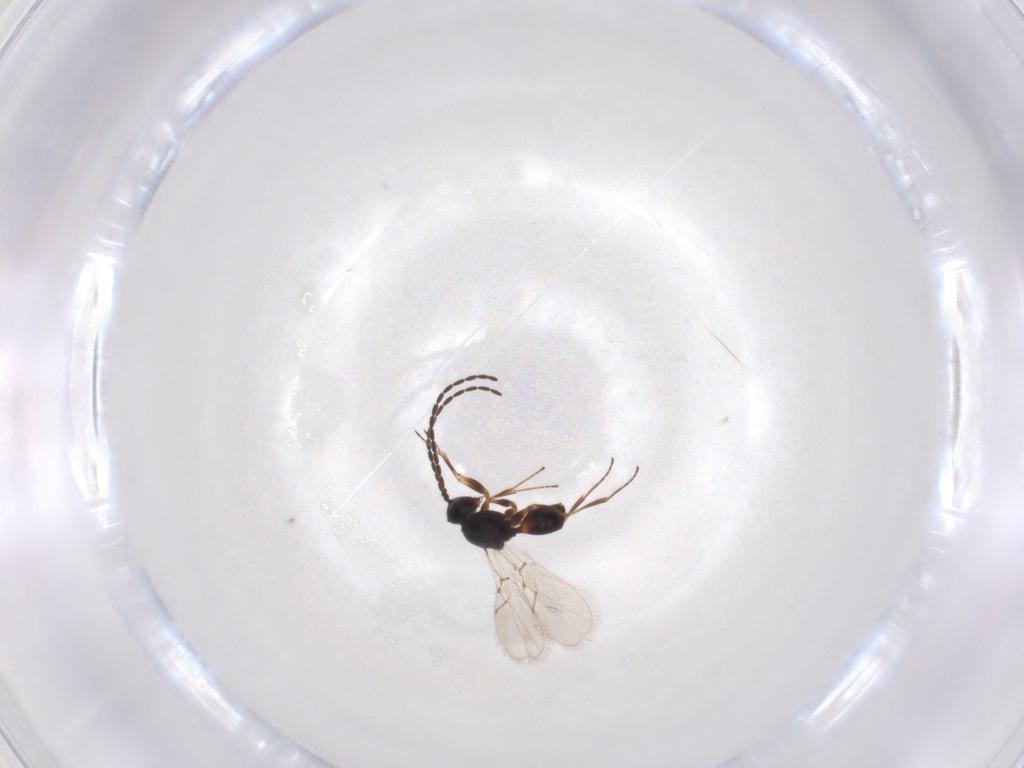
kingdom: Animalia
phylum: Arthropoda
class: Insecta
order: Hymenoptera
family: Figitidae
